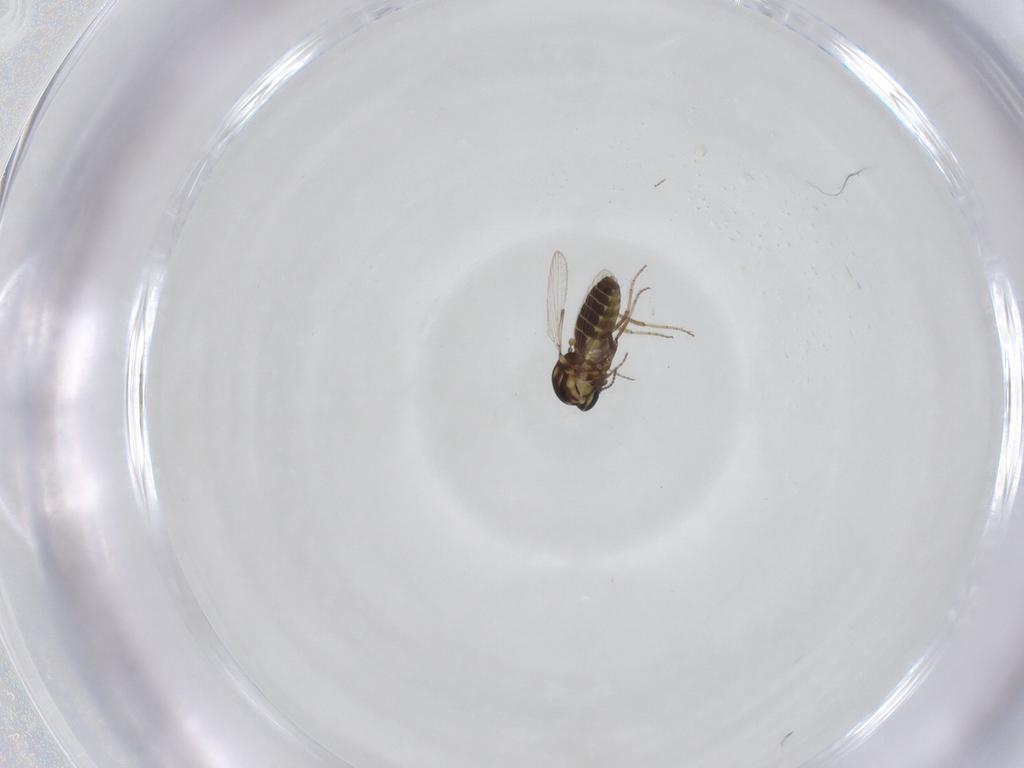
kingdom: Animalia
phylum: Arthropoda
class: Insecta
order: Diptera
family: Ceratopogonidae
